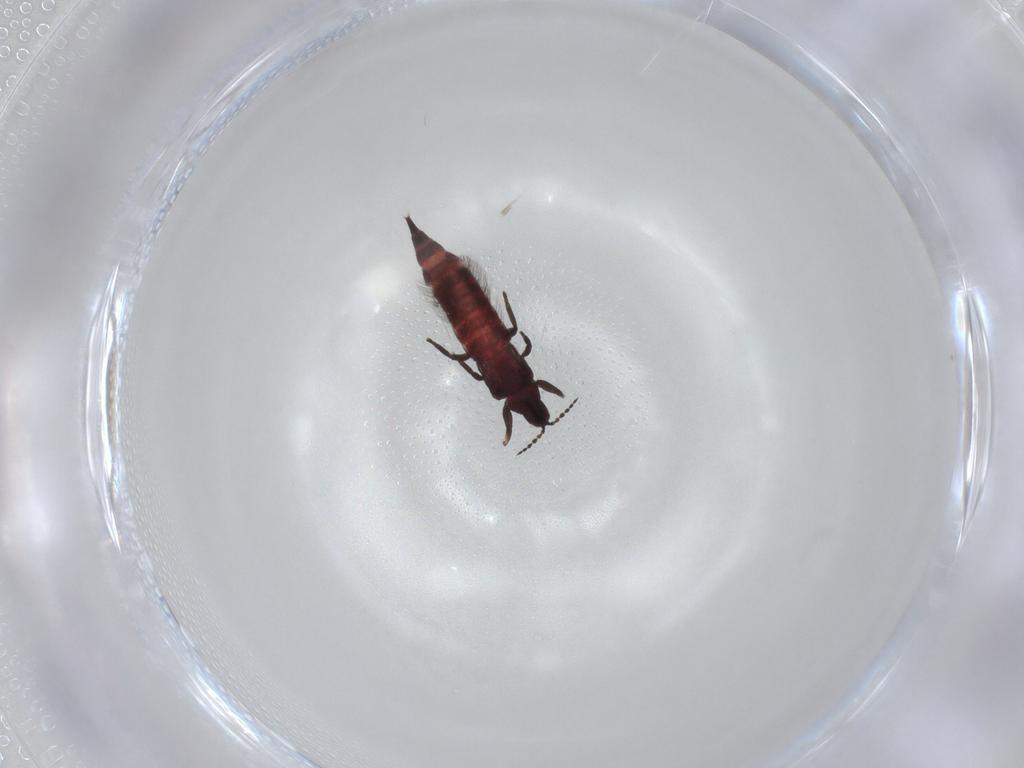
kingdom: Animalia
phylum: Arthropoda
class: Insecta
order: Thysanoptera
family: Phlaeothripidae
